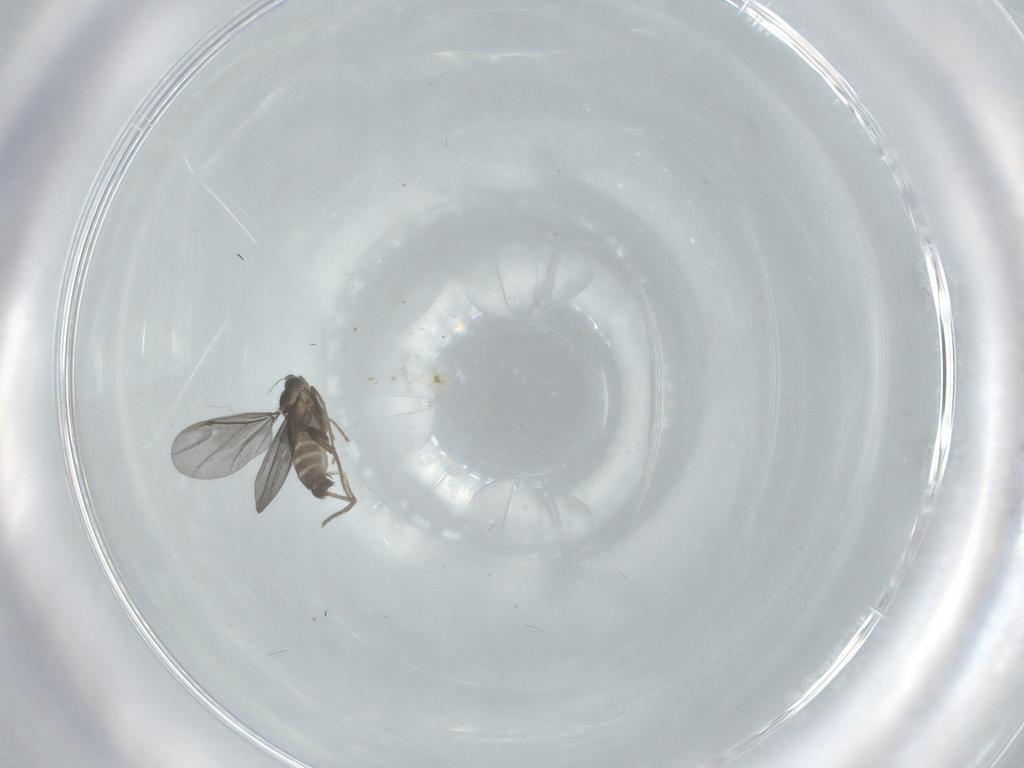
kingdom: Animalia
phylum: Arthropoda
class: Insecta
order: Diptera
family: Phoridae
